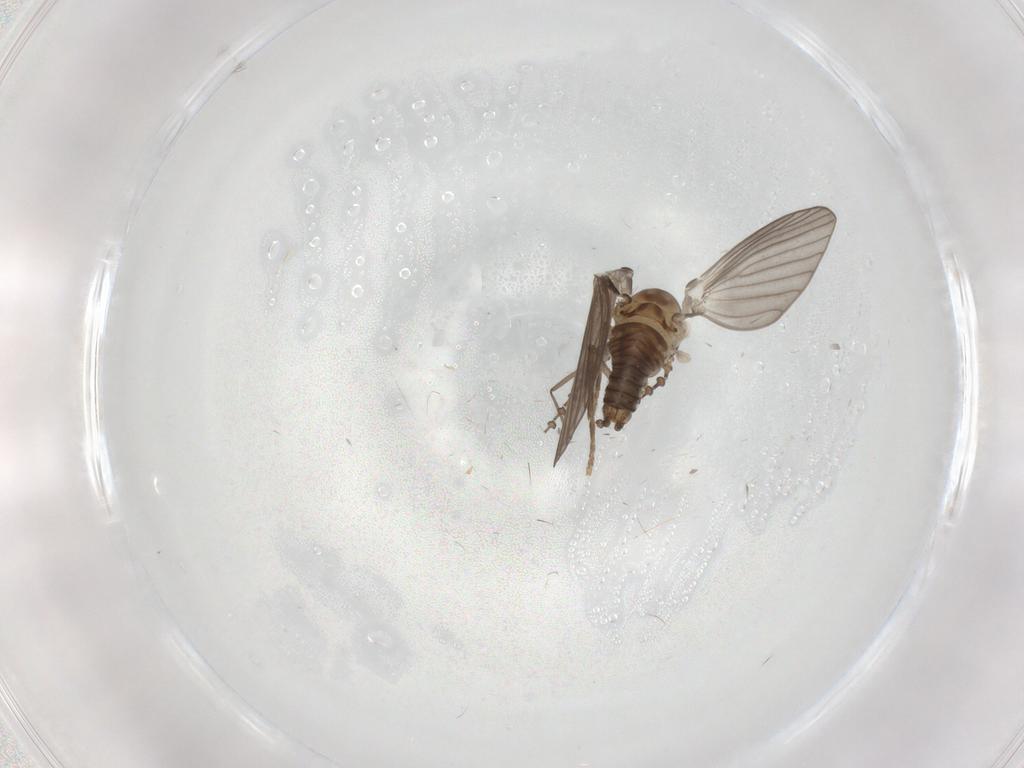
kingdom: Animalia
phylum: Arthropoda
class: Insecta
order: Diptera
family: Psychodidae
